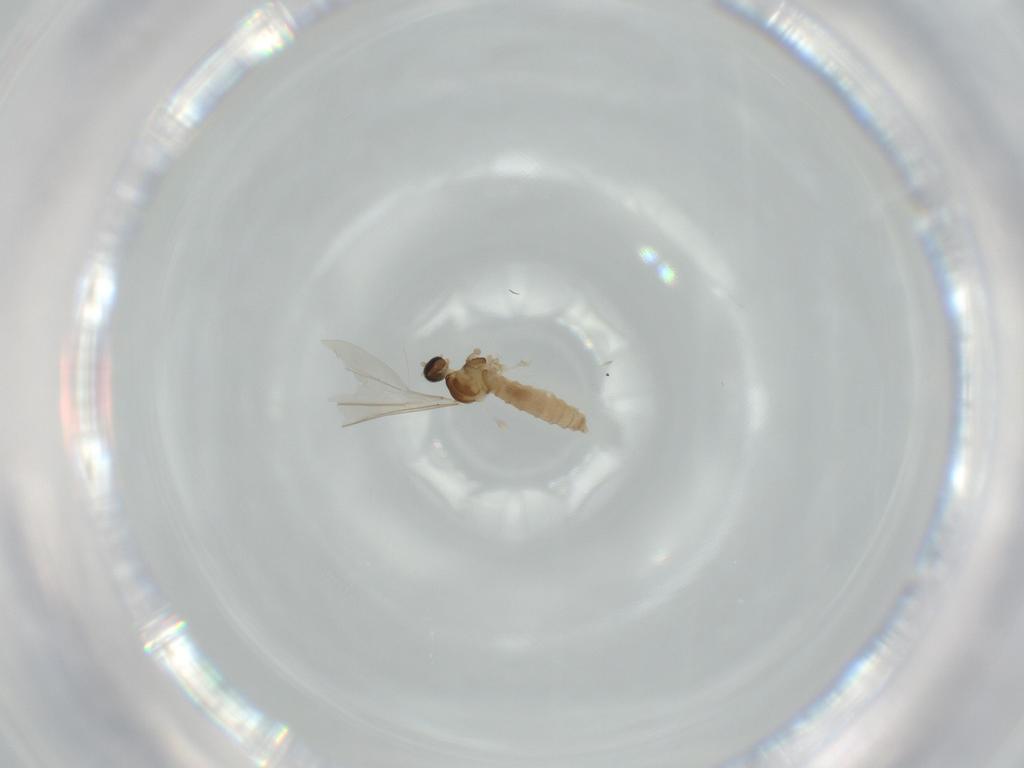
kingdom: Animalia
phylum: Arthropoda
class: Insecta
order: Diptera
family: Cecidomyiidae
